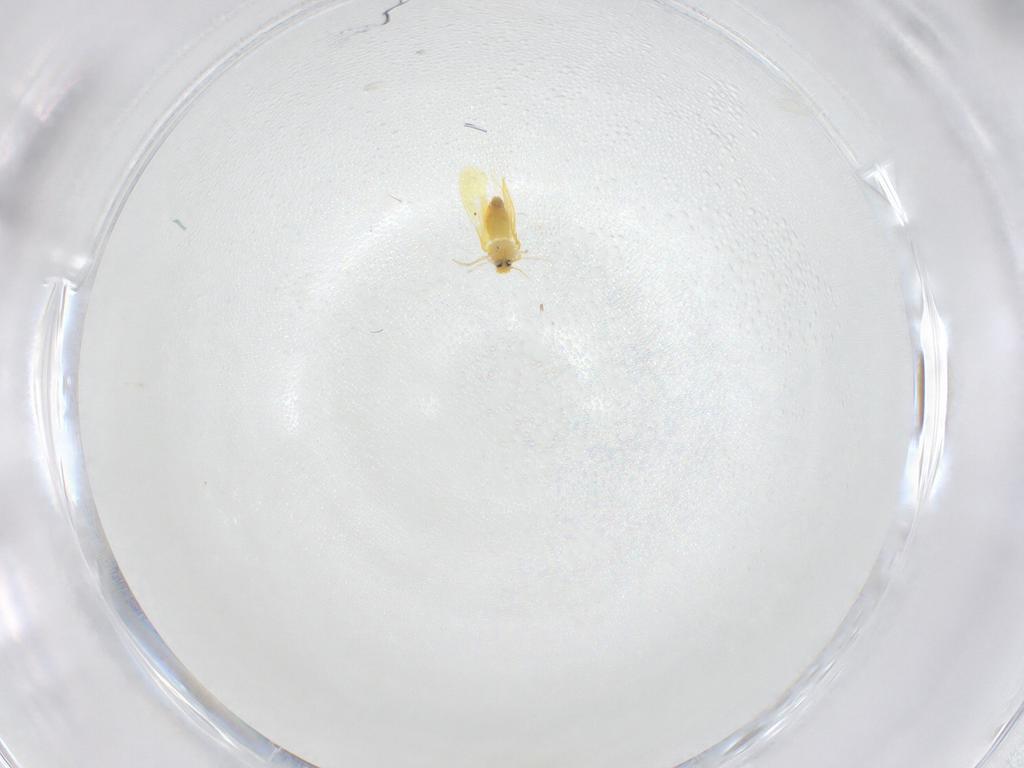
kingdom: Animalia
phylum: Arthropoda
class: Insecta
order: Hemiptera
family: Cixiidae
